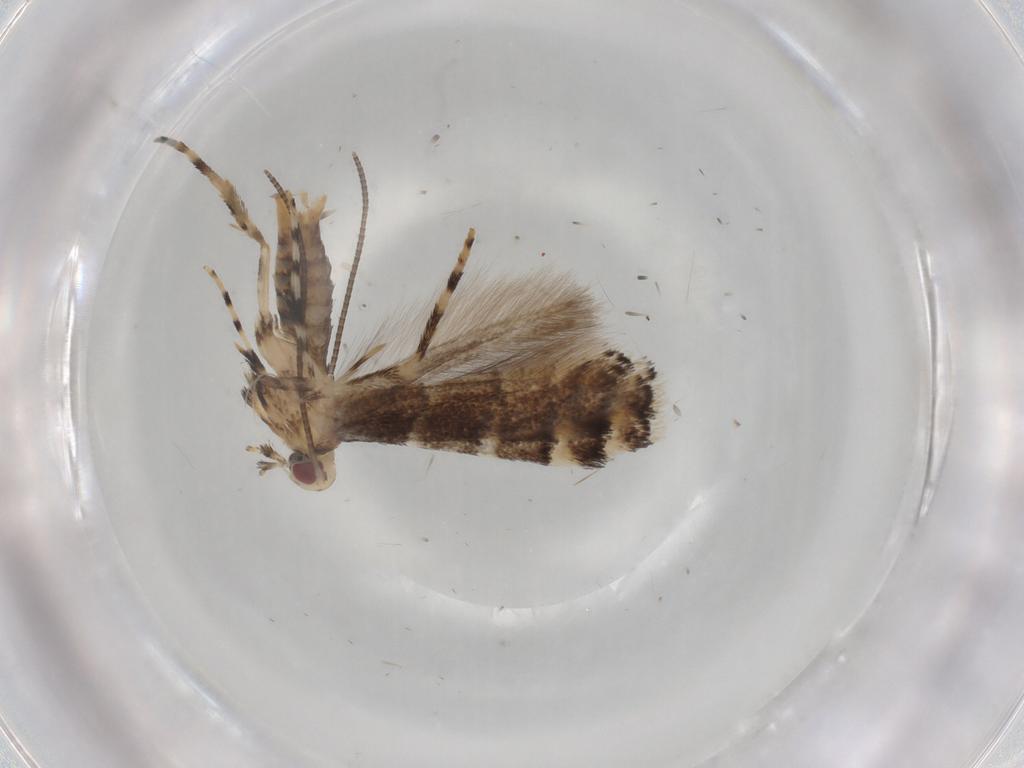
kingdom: Animalia
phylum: Arthropoda
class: Insecta
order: Lepidoptera
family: Gracillariidae
